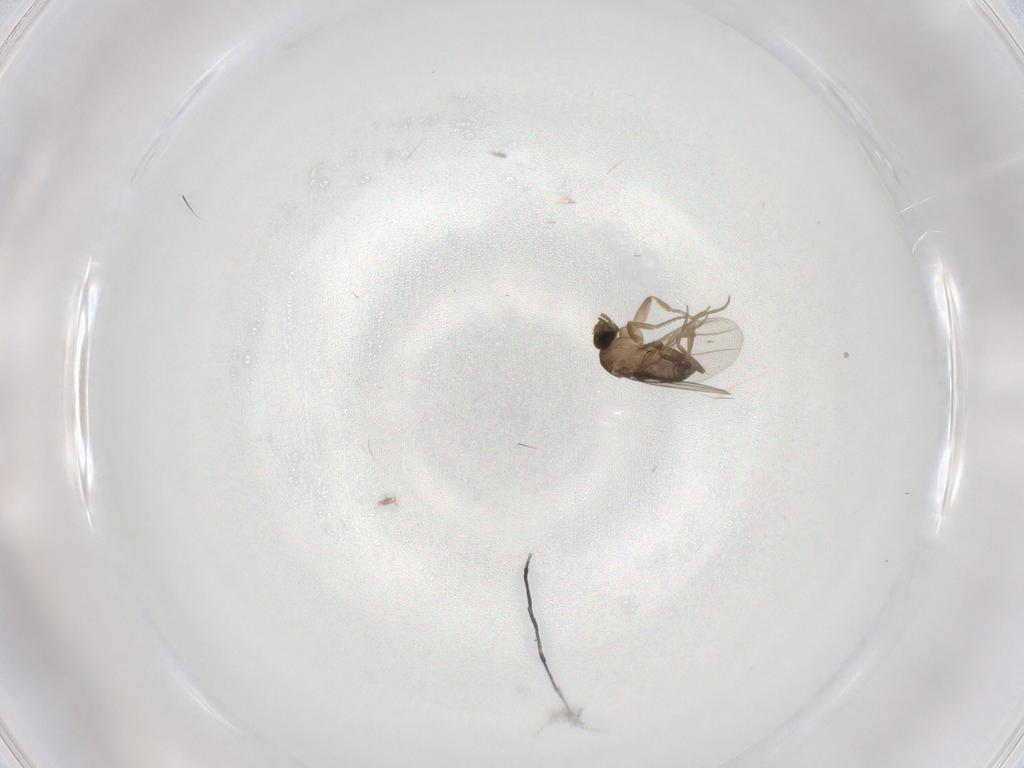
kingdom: Animalia
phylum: Arthropoda
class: Insecta
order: Diptera
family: Phoridae
